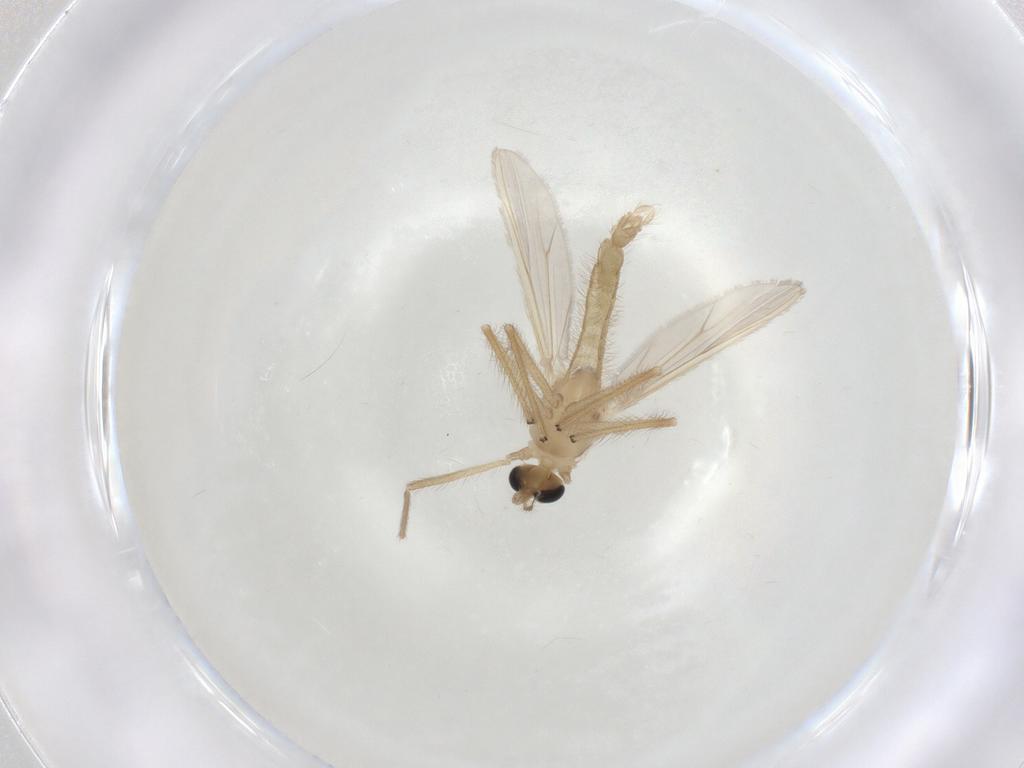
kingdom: Animalia
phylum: Arthropoda
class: Insecta
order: Diptera
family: Chironomidae
